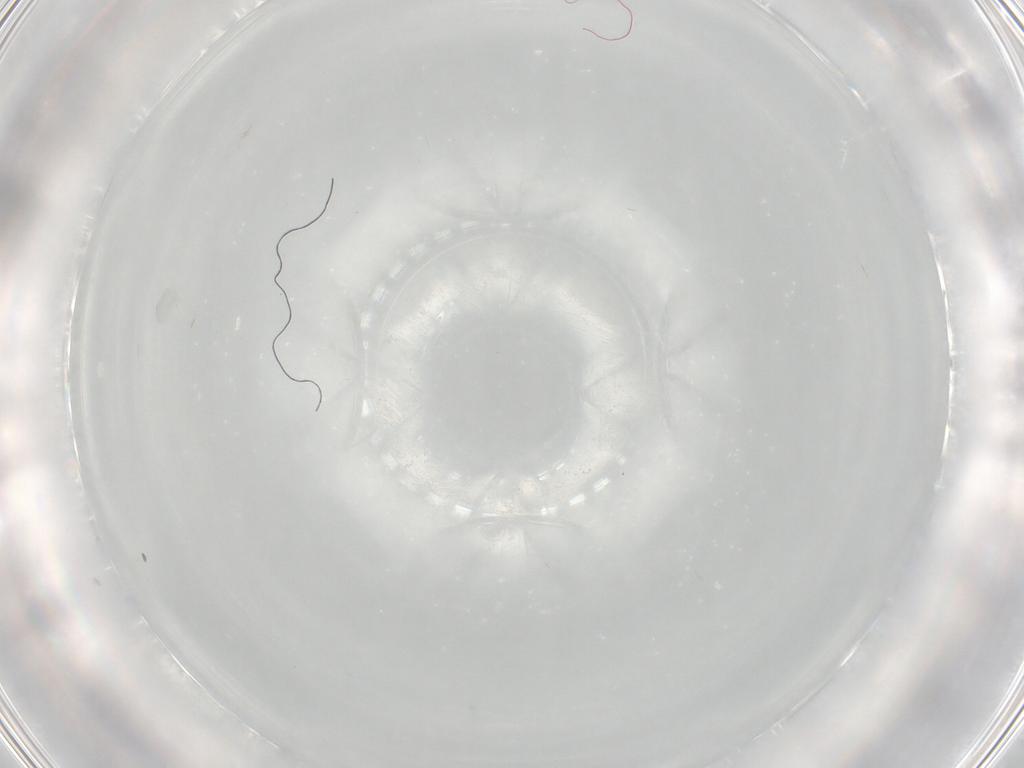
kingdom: Animalia
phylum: Arthropoda
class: Insecta
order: Diptera
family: Chironomidae
